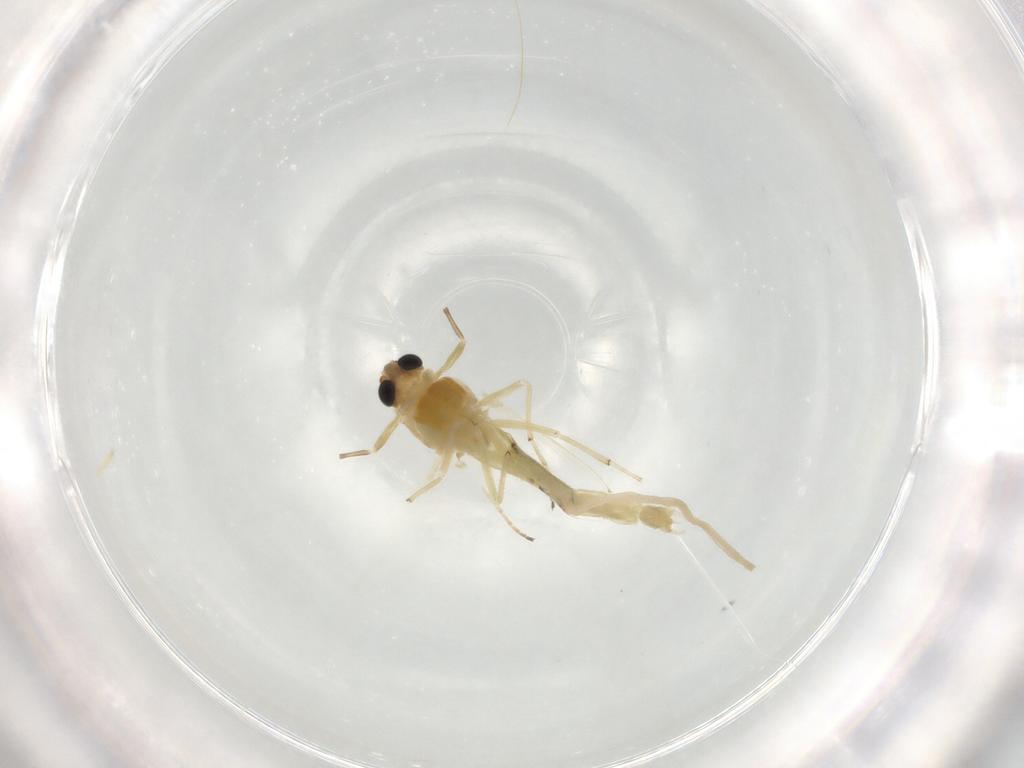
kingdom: Animalia
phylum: Arthropoda
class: Insecta
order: Diptera
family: Chironomidae
